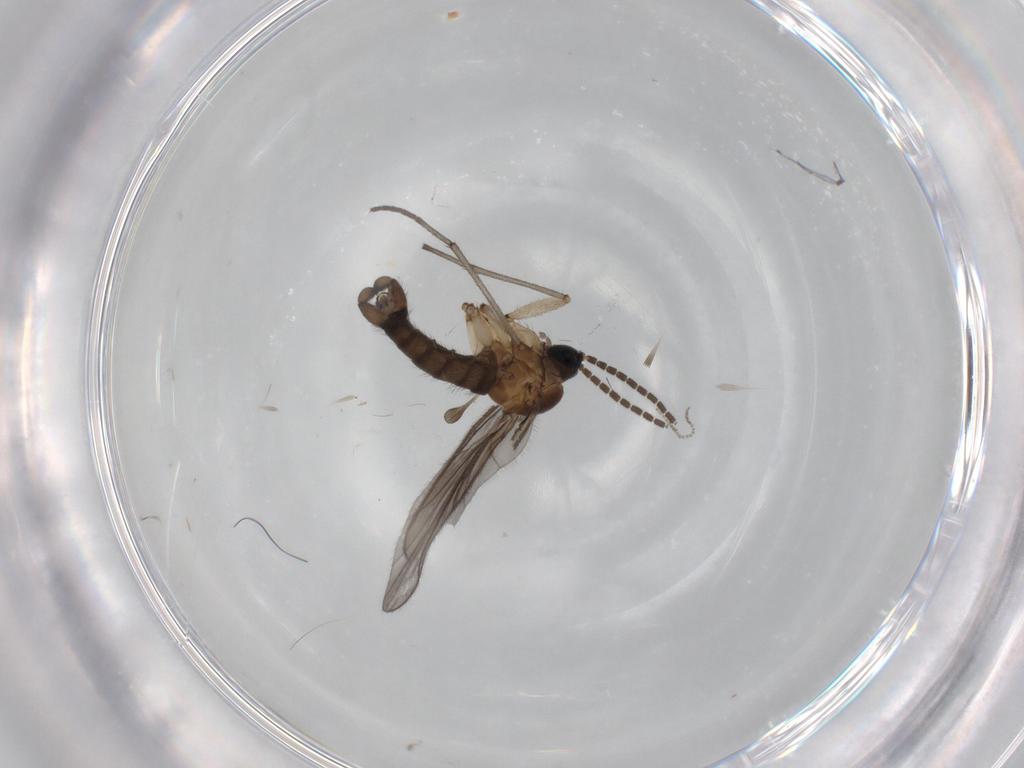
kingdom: Animalia
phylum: Arthropoda
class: Insecta
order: Diptera
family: Sciaridae
